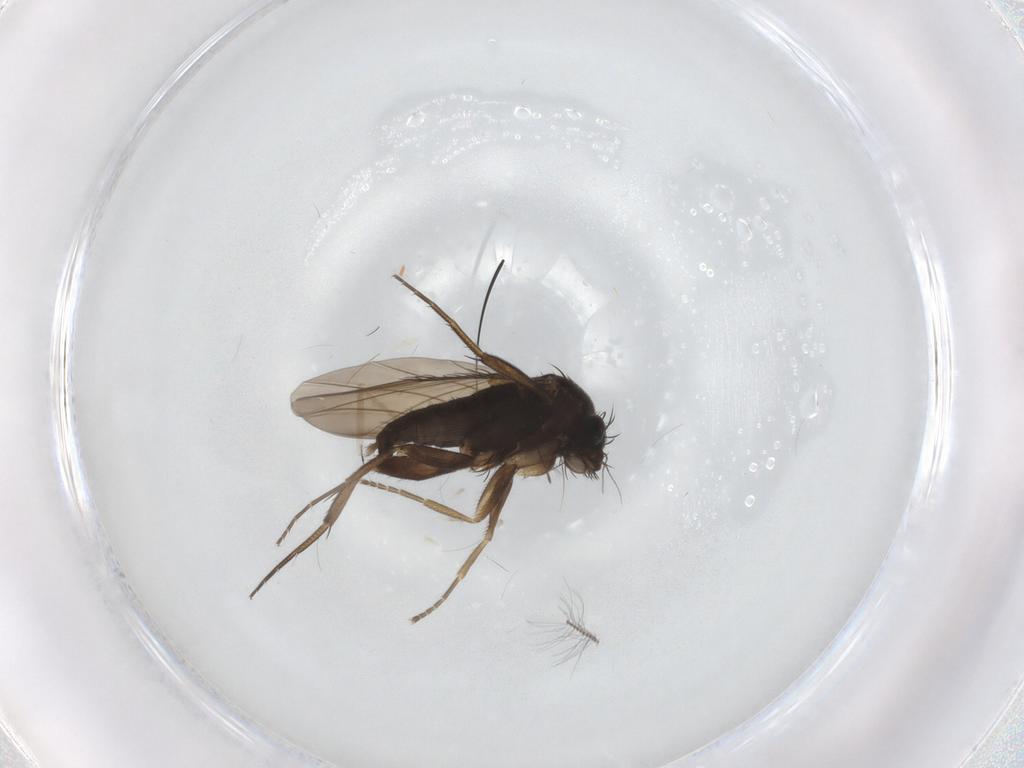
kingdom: Animalia
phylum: Arthropoda
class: Insecta
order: Diptera
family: Phoridae
